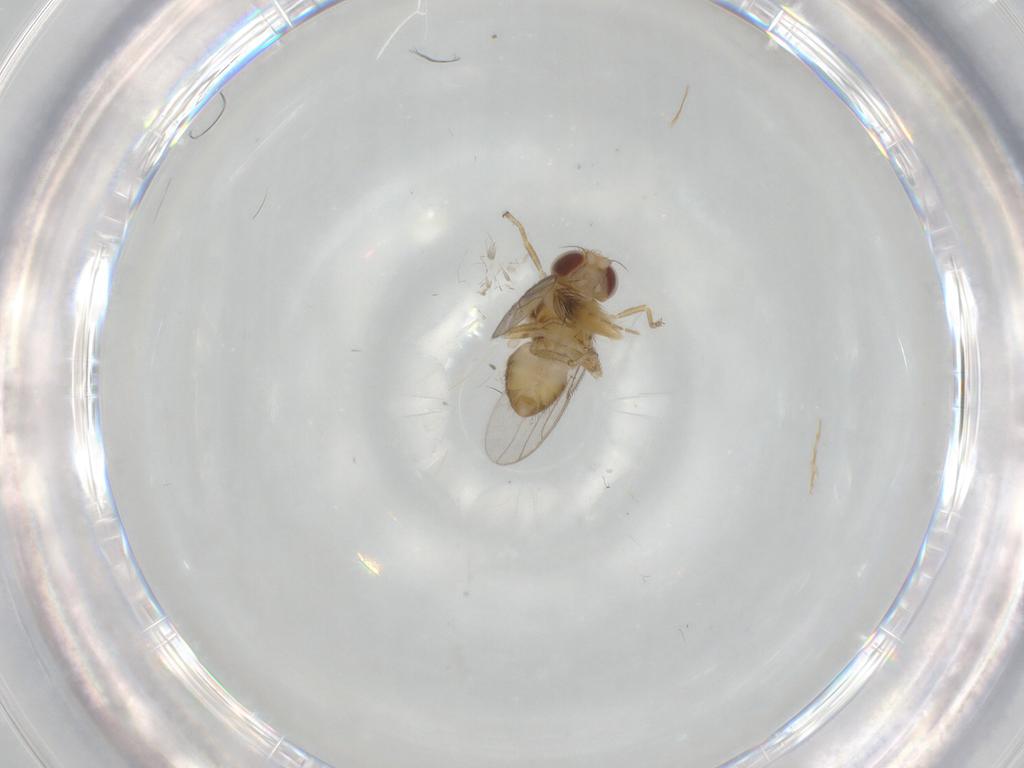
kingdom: Animalia
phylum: Arthropoda
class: Insecta
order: Diptera
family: Chloropidae
